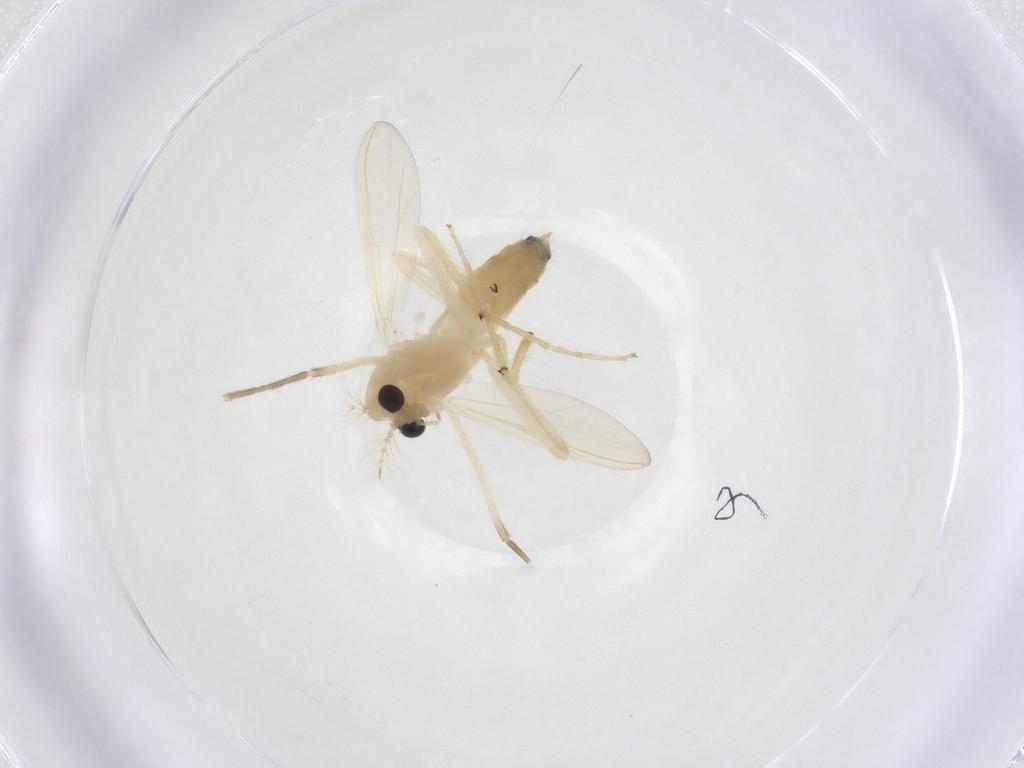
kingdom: Animalia
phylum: Arthropoda
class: Insecta
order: Diptera
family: Chironomidae
